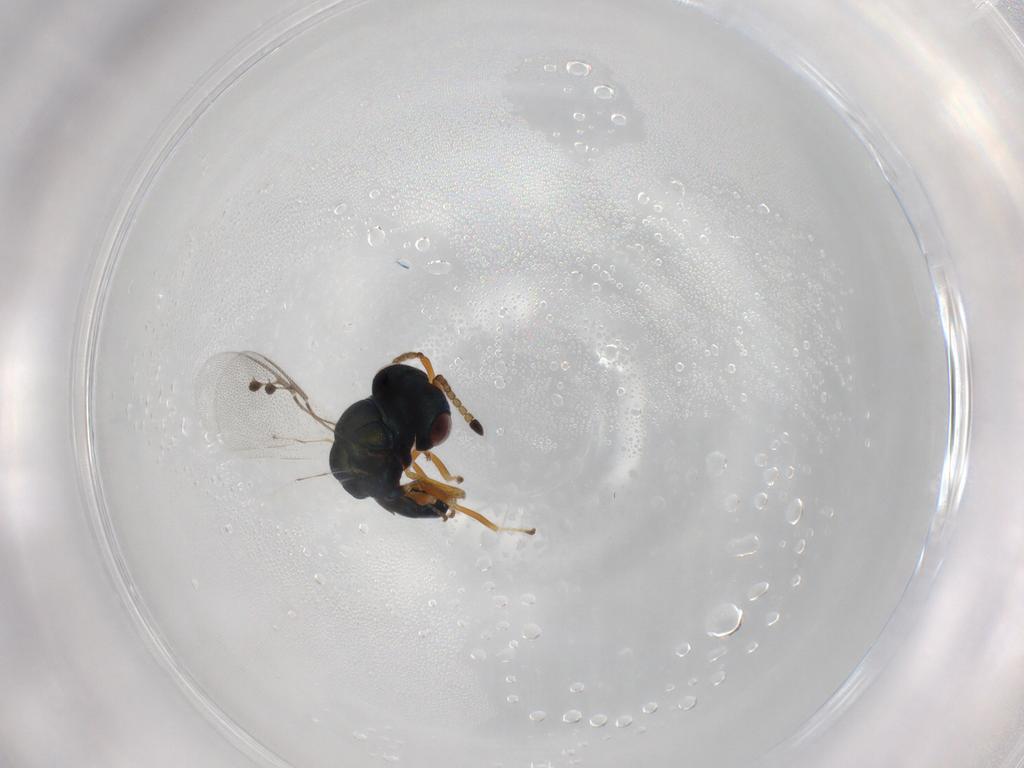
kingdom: Animalia
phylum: Arthropoda
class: Insecta
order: Hymenoptera
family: Pteromalidae
